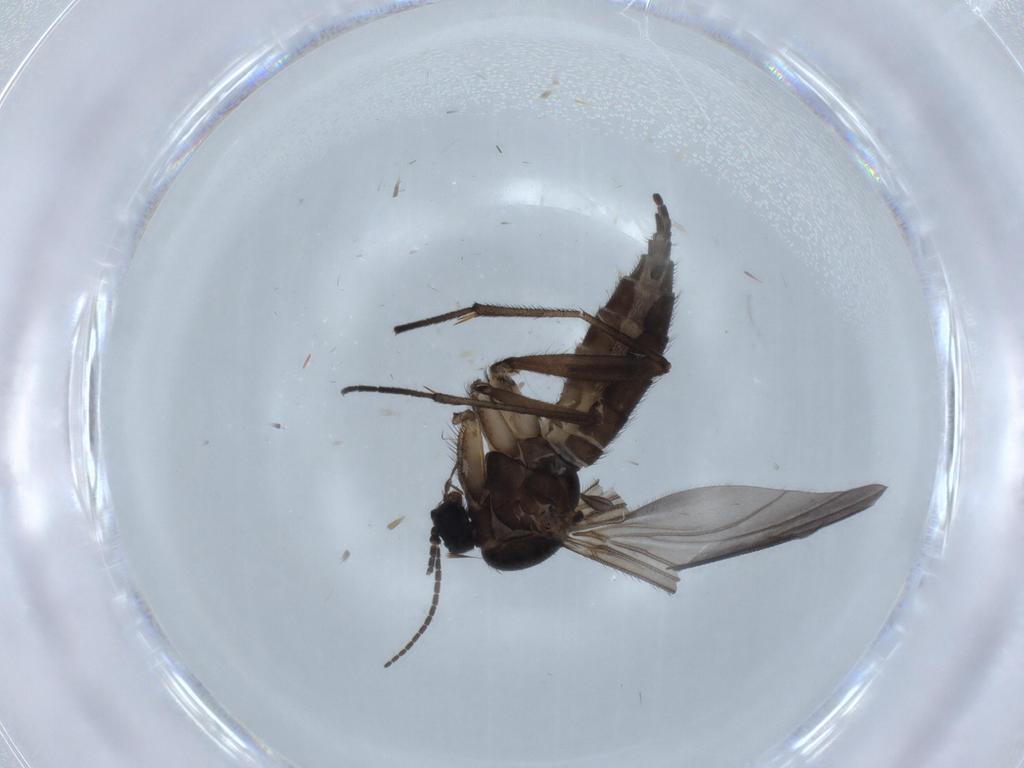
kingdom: Animalia
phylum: Arthropoda
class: Insecta
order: Diptera
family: Sciaridae
